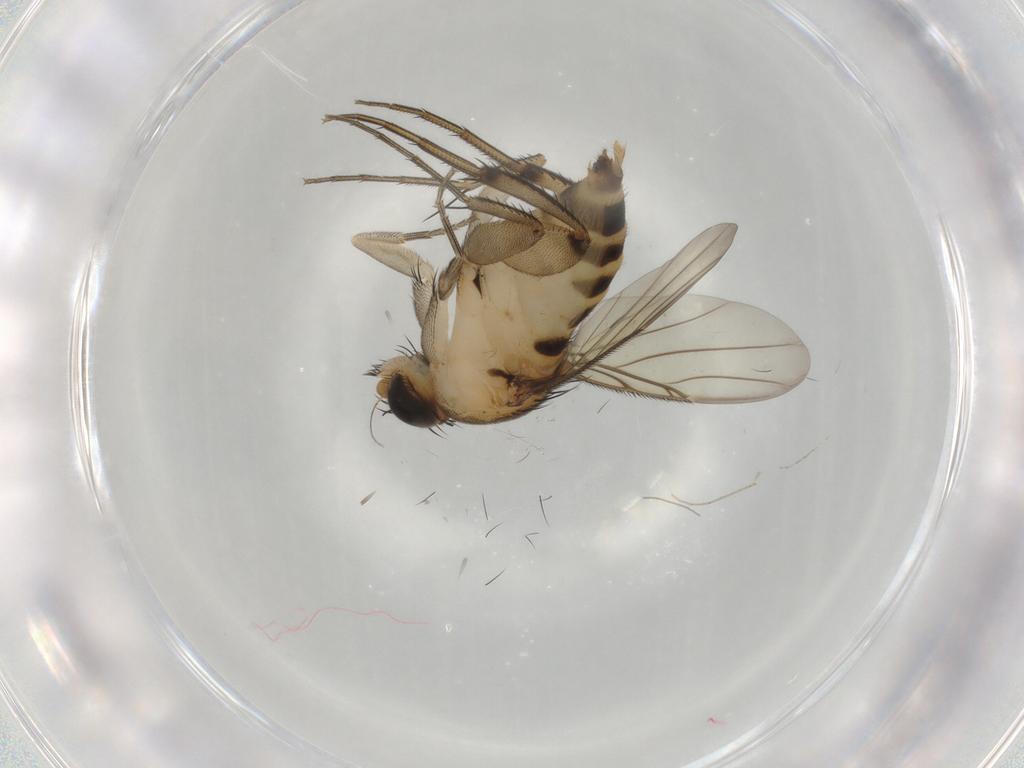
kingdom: Animalia
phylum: Arthropoda
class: Insecta
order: Diptera
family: Phoridae
